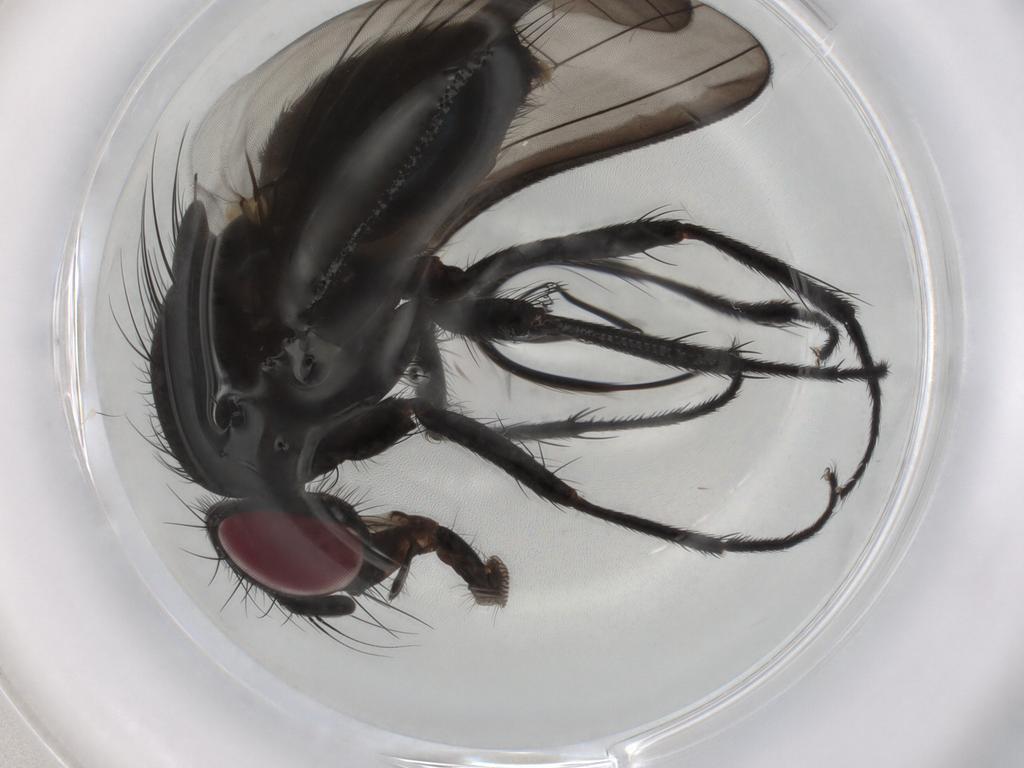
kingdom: Animalia
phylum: Arthropoda
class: Insecta
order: Diptera
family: Fannia
